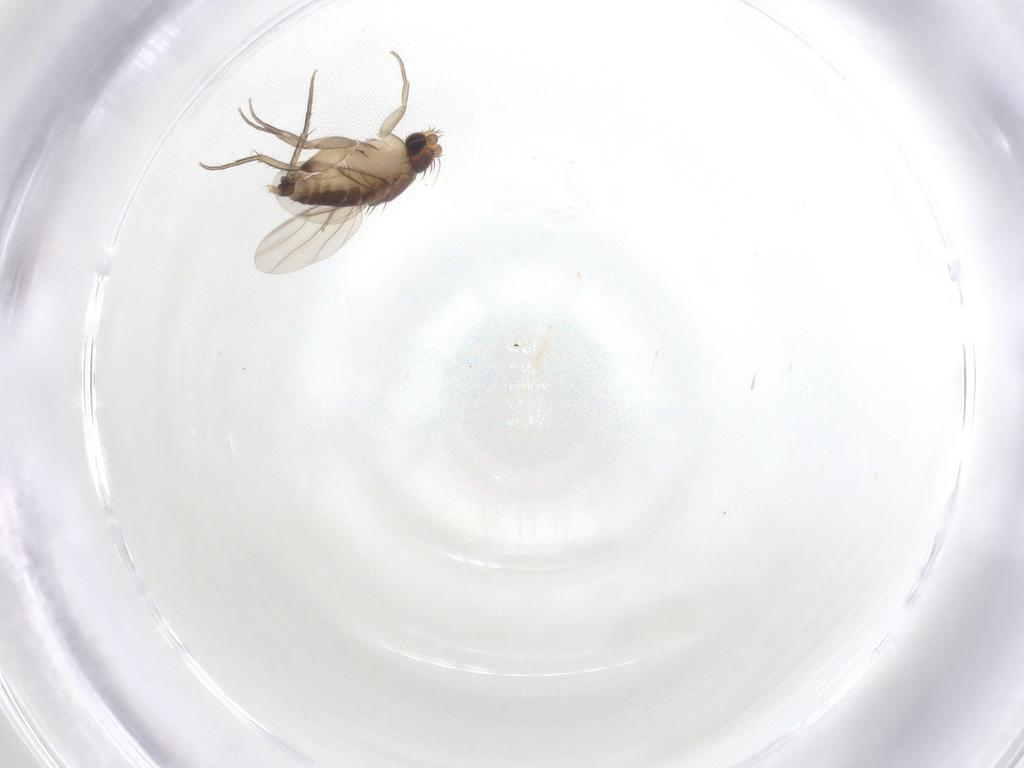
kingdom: Animalia
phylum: Arthropoda
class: Insecta
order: Diptera
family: Phoridae
